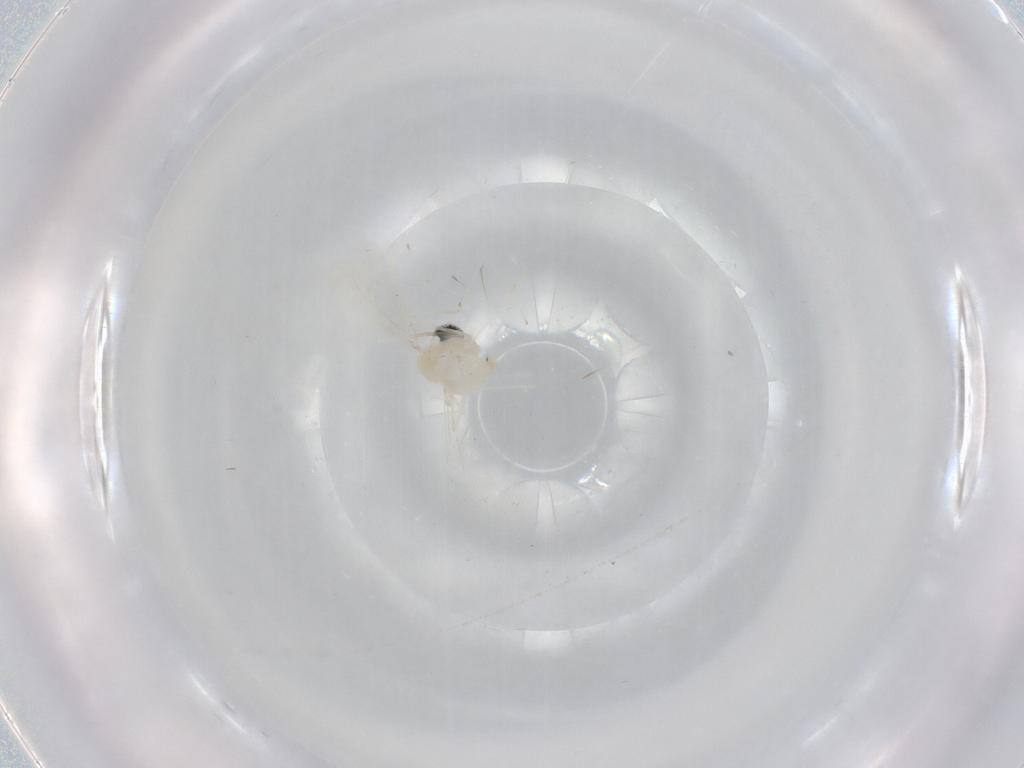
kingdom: Animalia
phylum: Arthropoda
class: Insecta
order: Diptera
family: Cecidomyiidae
